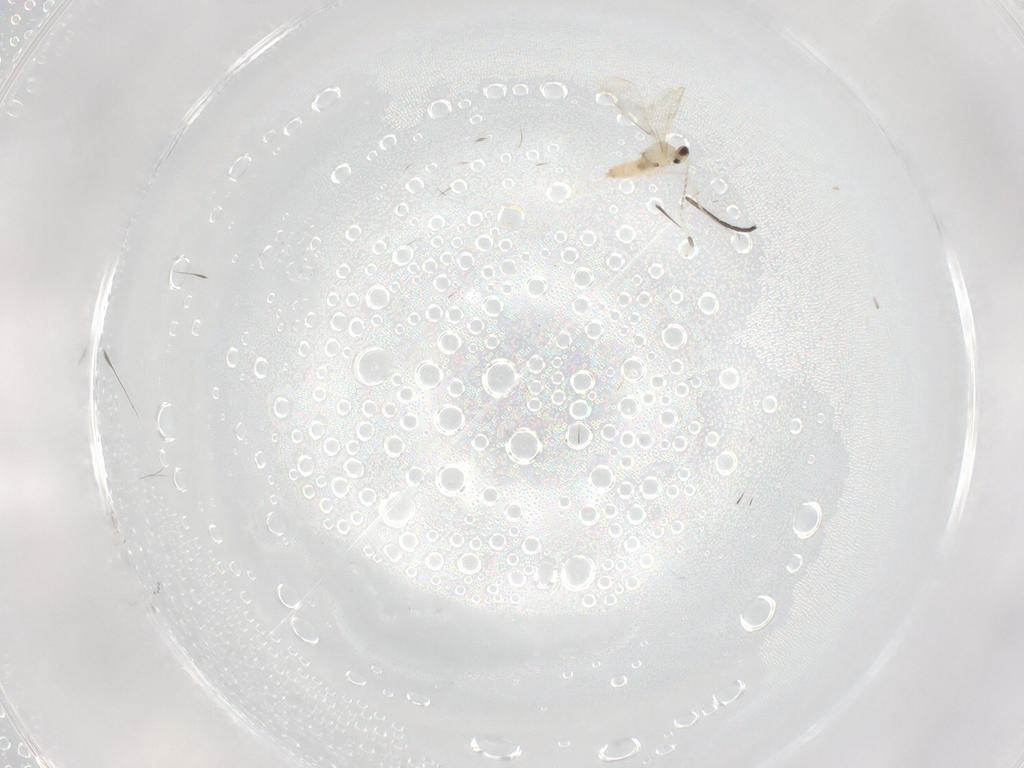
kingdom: Animalia
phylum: Arthropoda
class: Insecta
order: Diptera
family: Sciaridae
